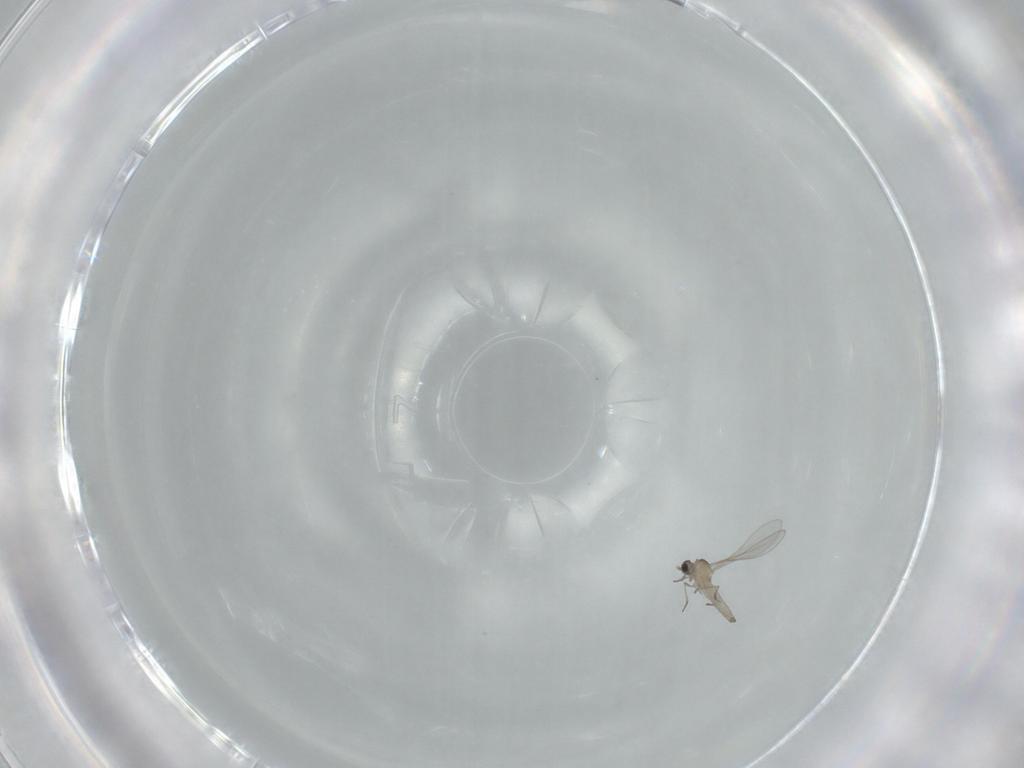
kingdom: Animalia
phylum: Arthropoda
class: Insecta
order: Diptera
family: Cecidomyiidae
